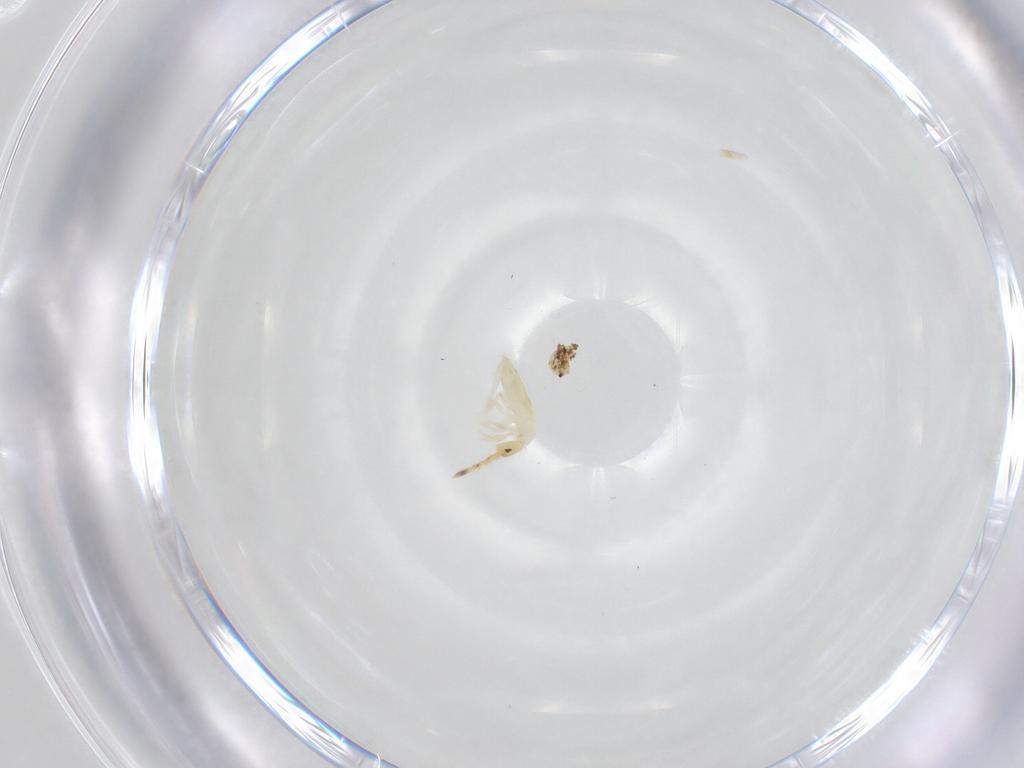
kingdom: Animalia
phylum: Arthropoda
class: Collembola
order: Entomobryomorpha
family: Entomobryidae
